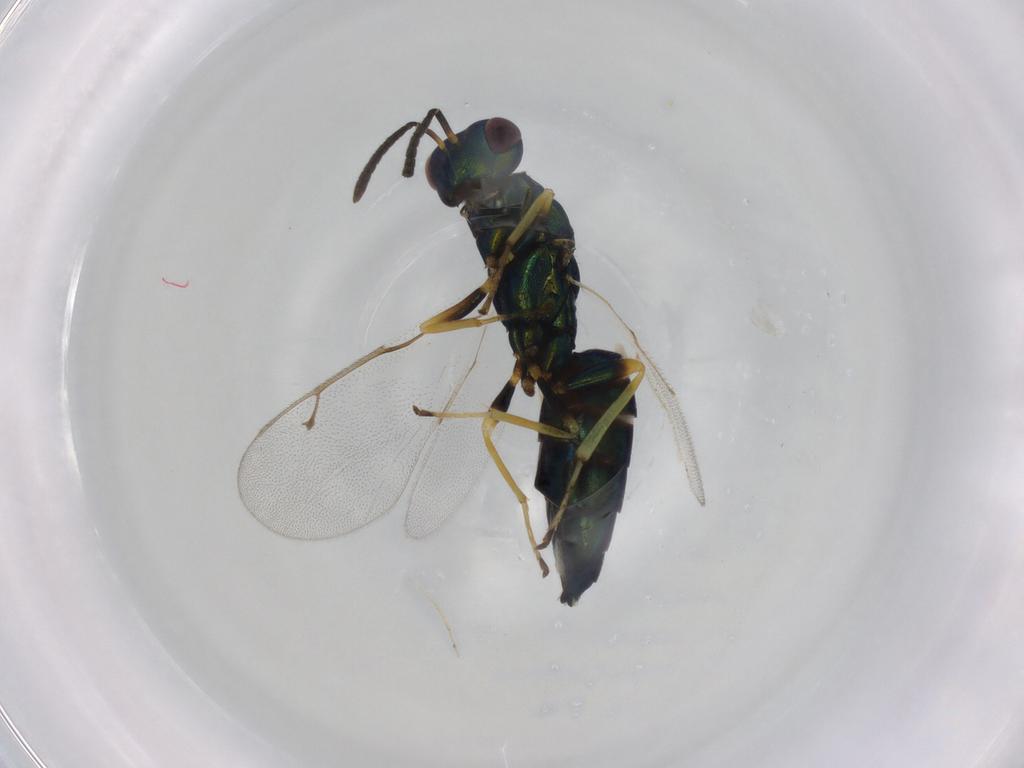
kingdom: Animalia
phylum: Arthropoda
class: Insecta
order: Hymenoptera
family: Pteromalidae
